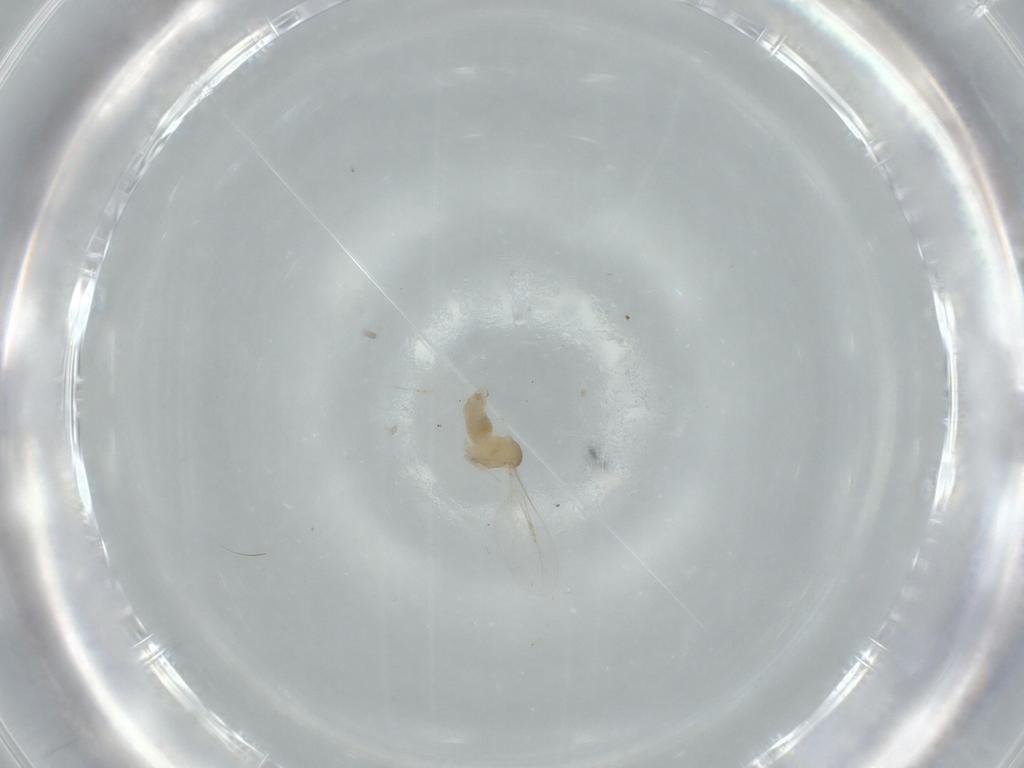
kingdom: Animalia
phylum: Arthropoda
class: Insecta
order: Diptera
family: Cecidomyiidae
